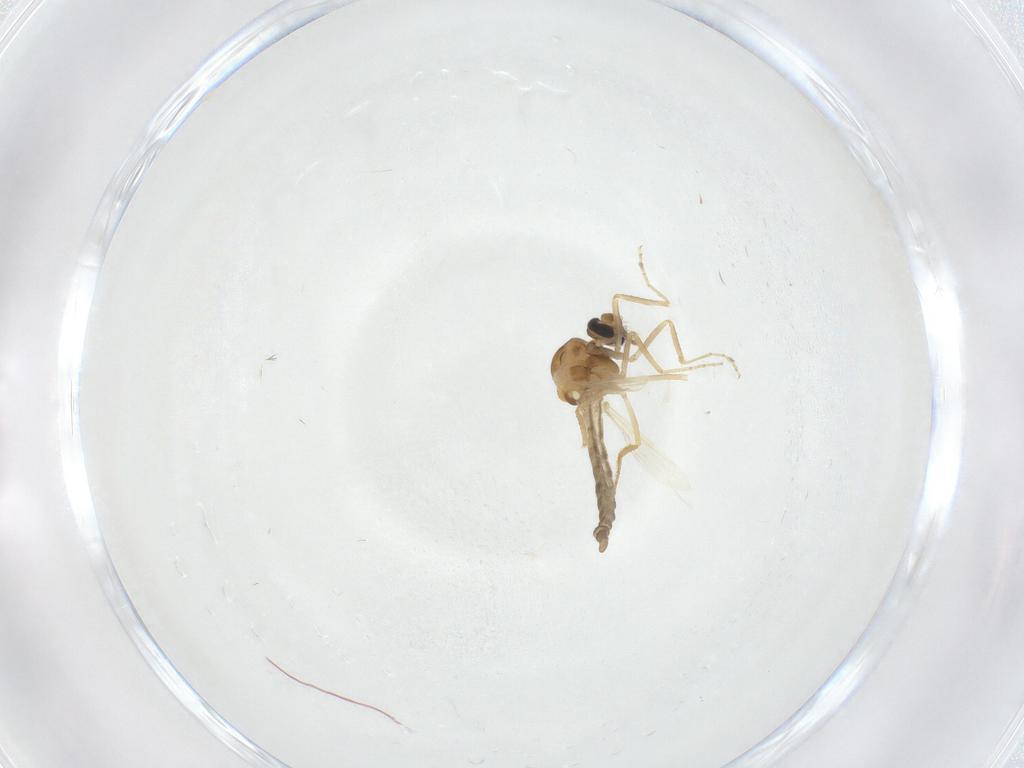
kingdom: Animalia
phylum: Arthropoda
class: Insecta
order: Diptera
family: Ceratopogonidae
